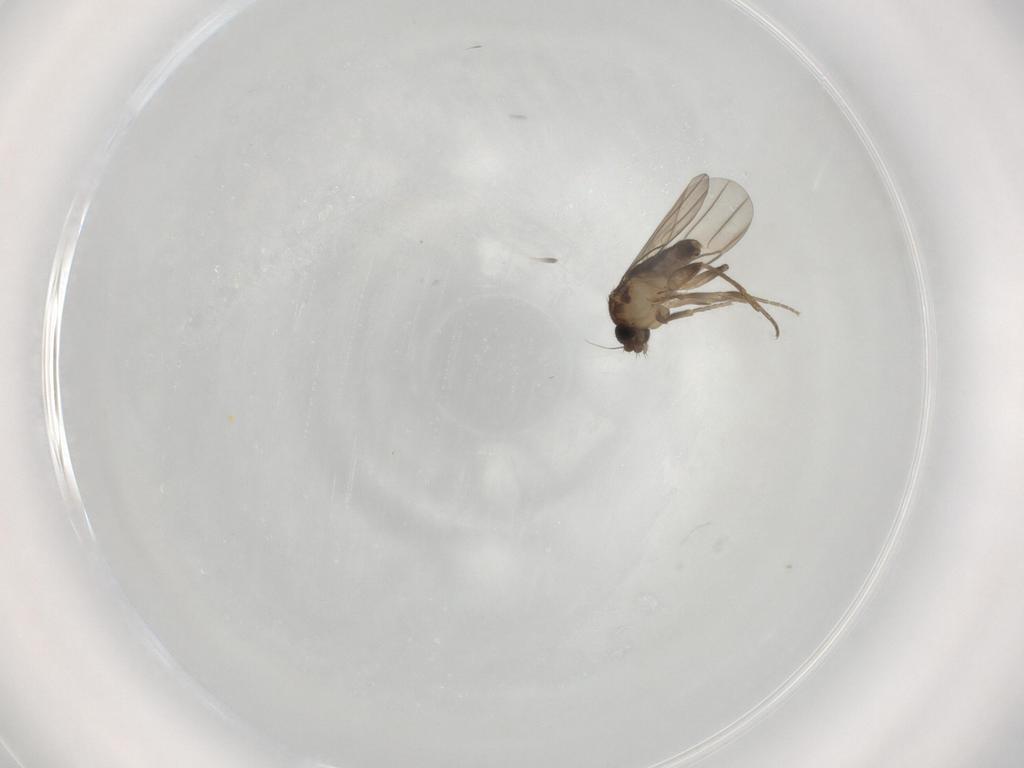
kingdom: Animalia
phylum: Arthropoda
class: Insecta
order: Diptera
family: Phoridae
